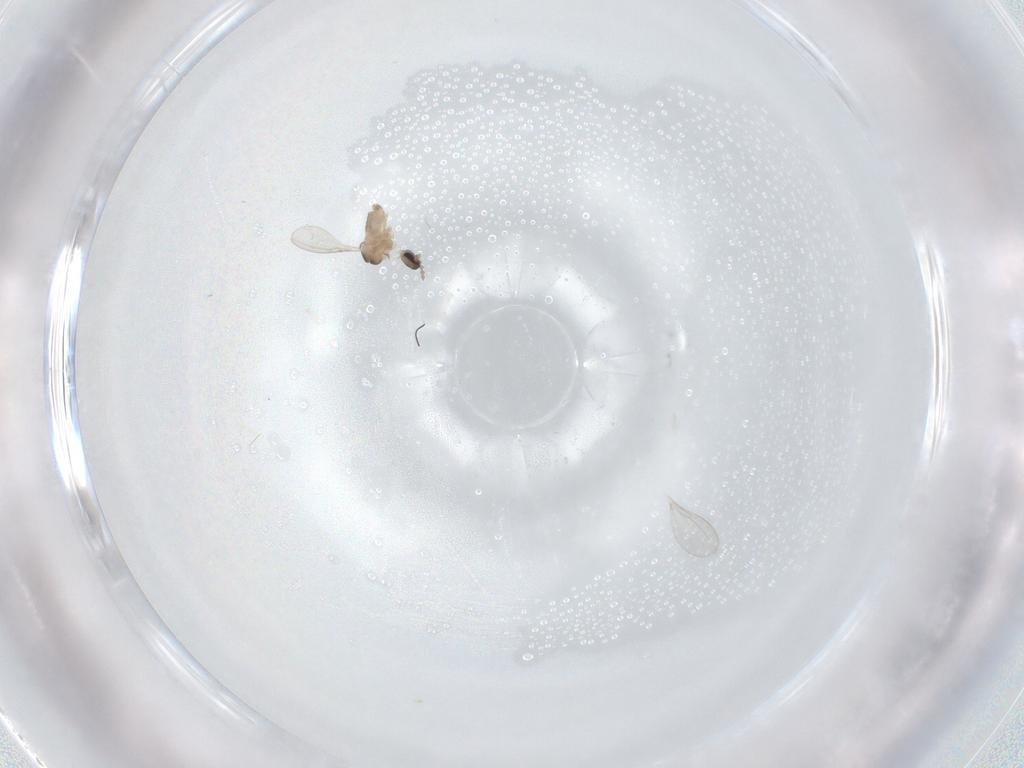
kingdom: Animalia
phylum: Arthropoda
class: Insecta
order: Diptera
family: Cecidomyiidae
